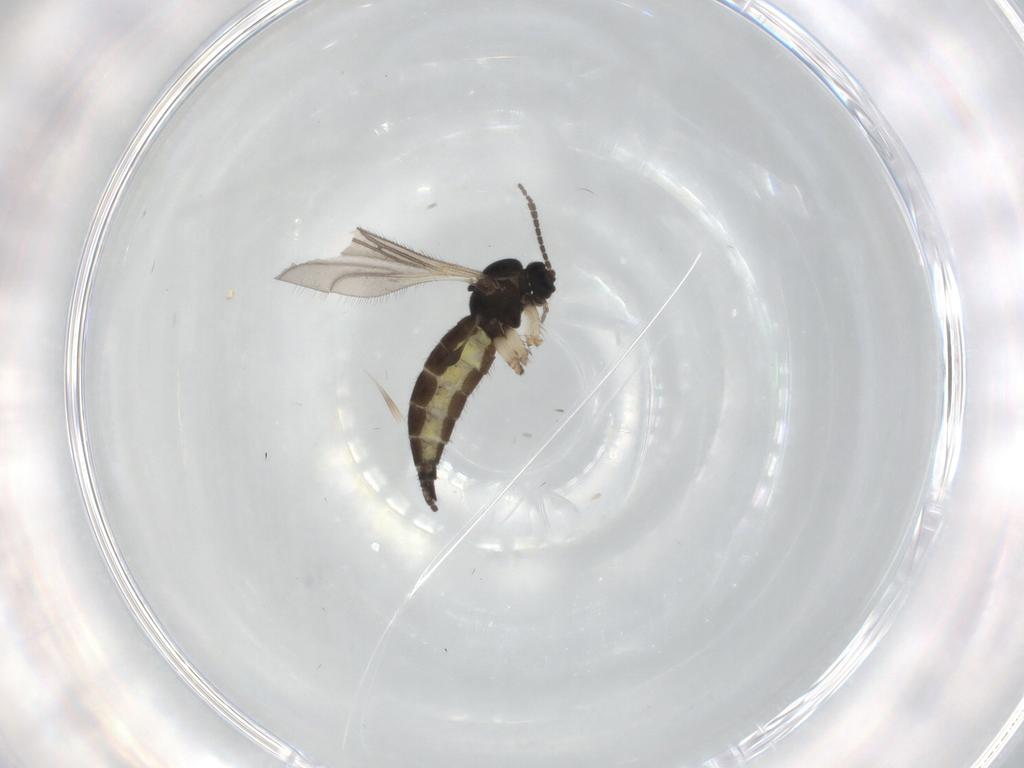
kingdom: Animalia
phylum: Arthropoda
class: Insecta
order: Diptera
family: Sciaridae
